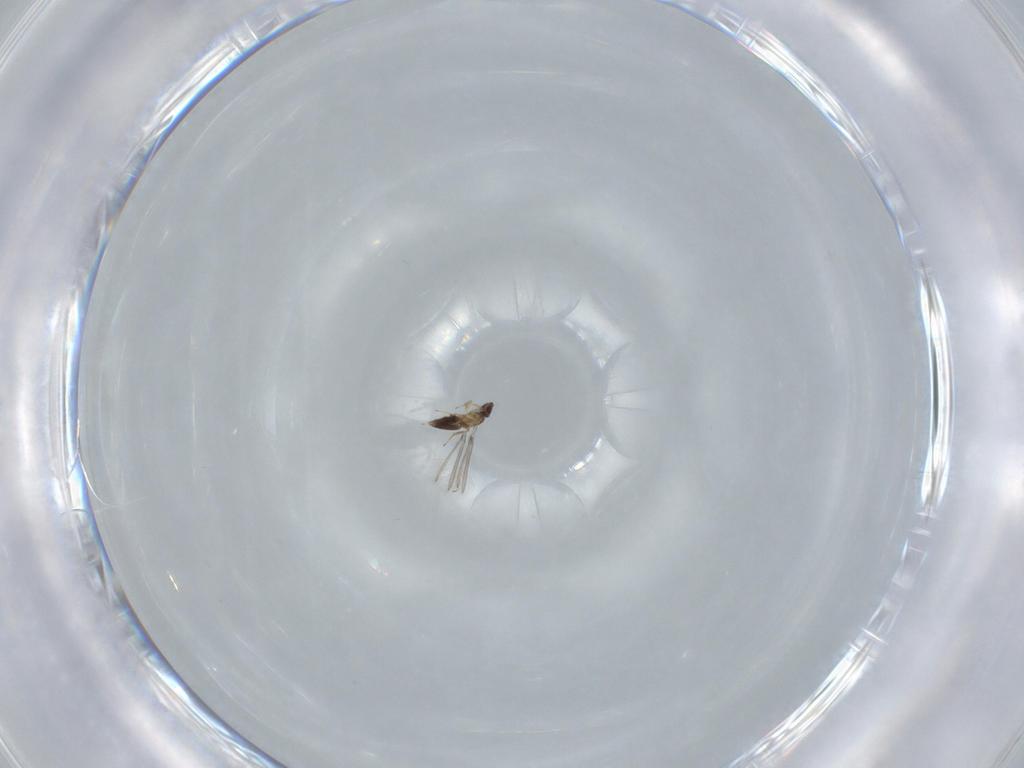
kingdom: Animalia
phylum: Arthropoda
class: Insecta
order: Hymenoptera
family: Mymaridae
